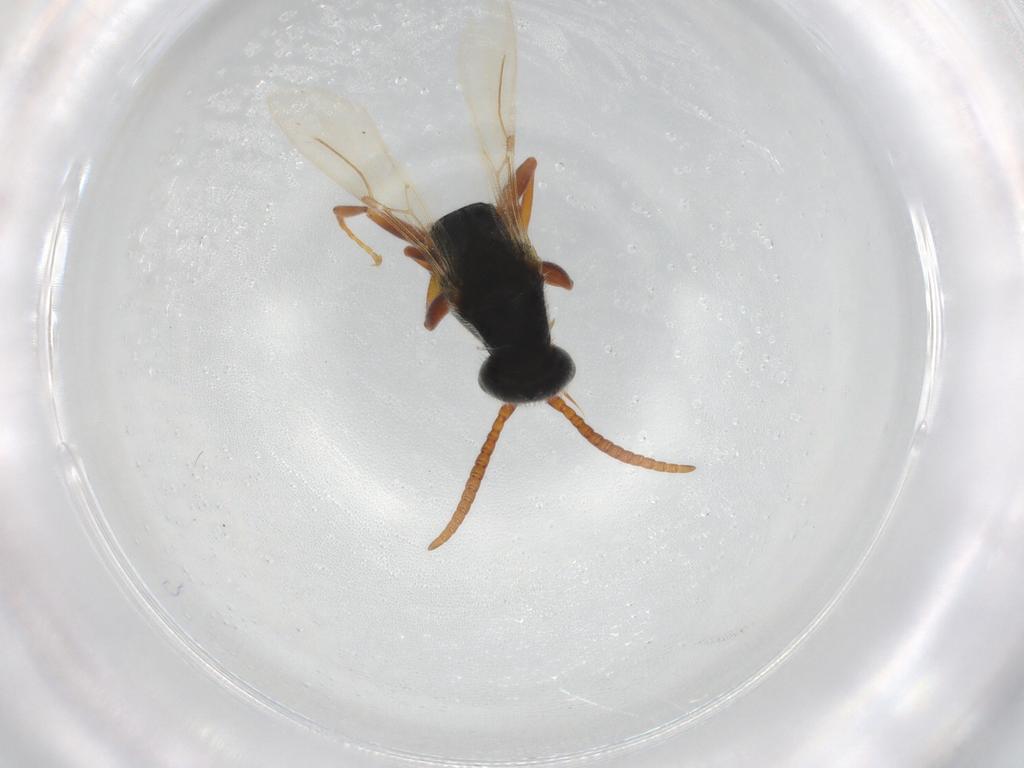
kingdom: Animalia
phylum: Arthropoda
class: Insecta
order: Hymenoptera
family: Bethylidae
